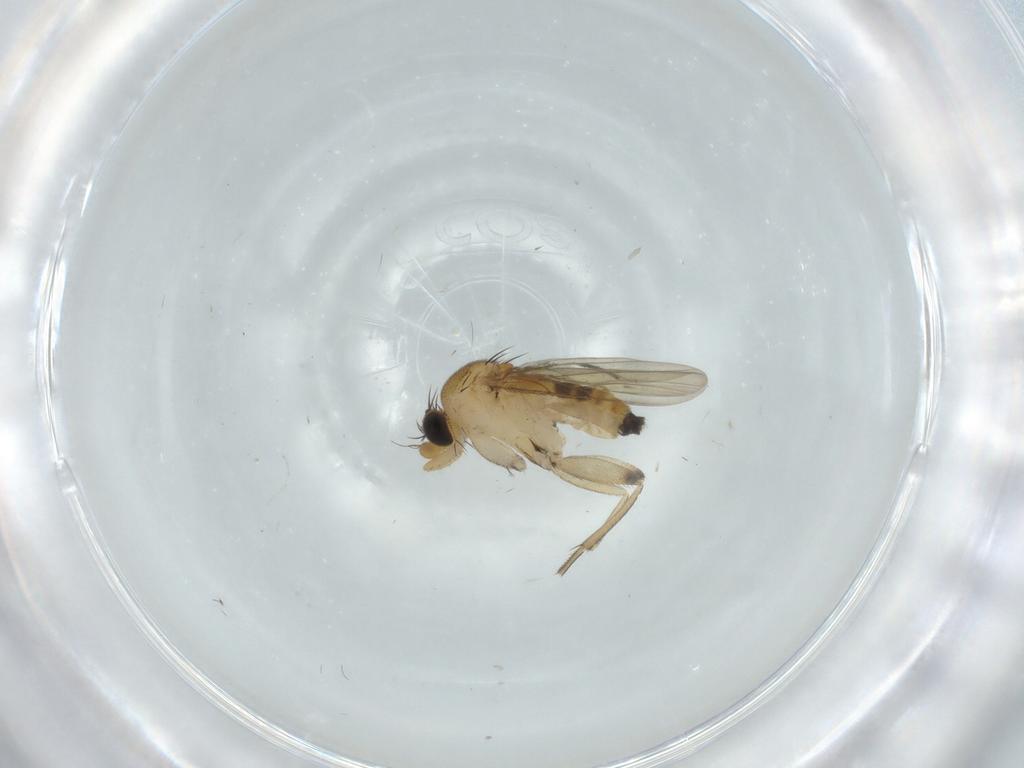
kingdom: Animalia
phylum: Arthropoda
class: Insecta
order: Diptera
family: Phoridae
